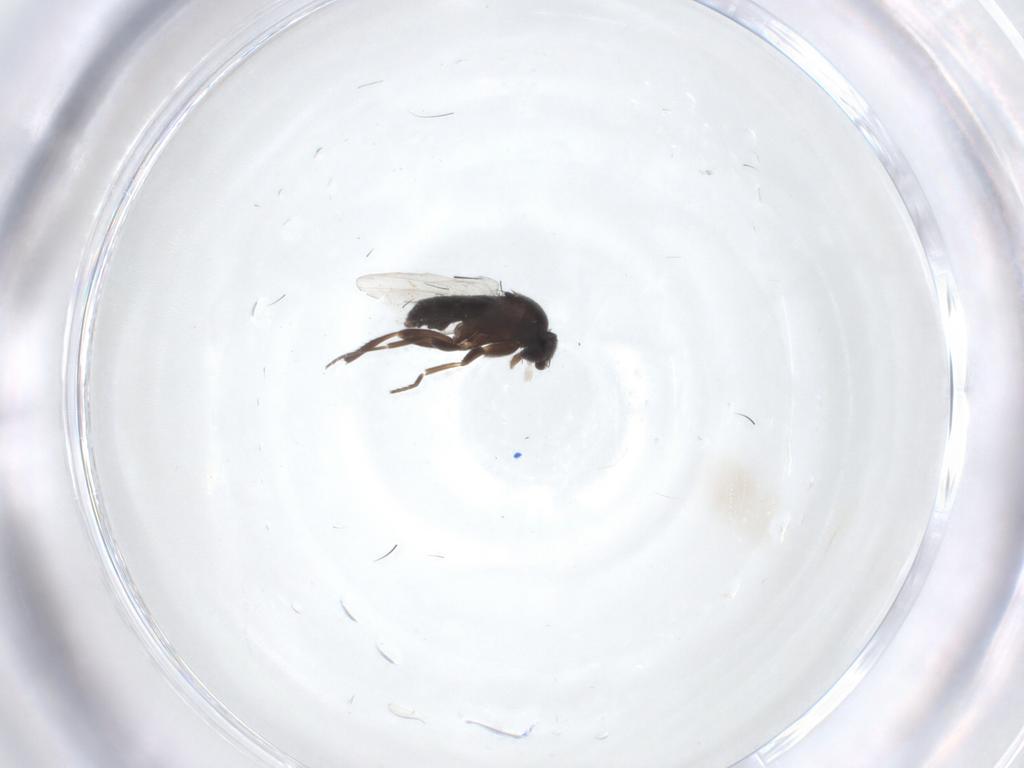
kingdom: Animalia
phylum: Arthropoda
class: Insecta
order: Diptera
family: Phoridae
